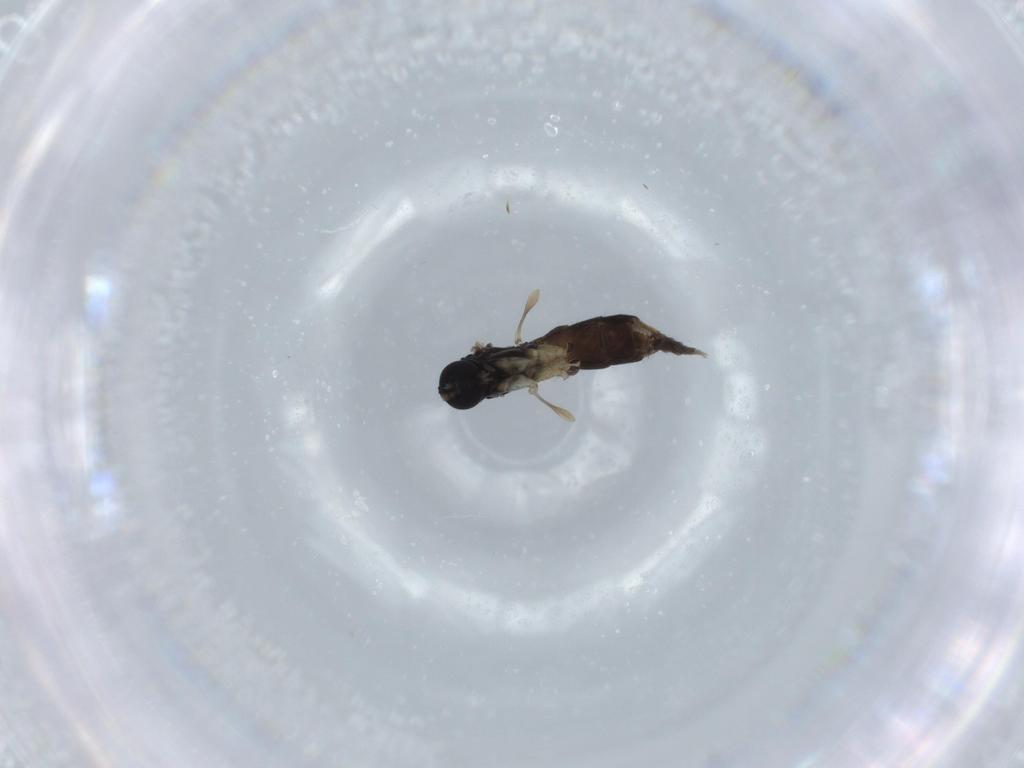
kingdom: Animalia
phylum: Arthropoda
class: Insecta
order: Diptera
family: Sciaridae
